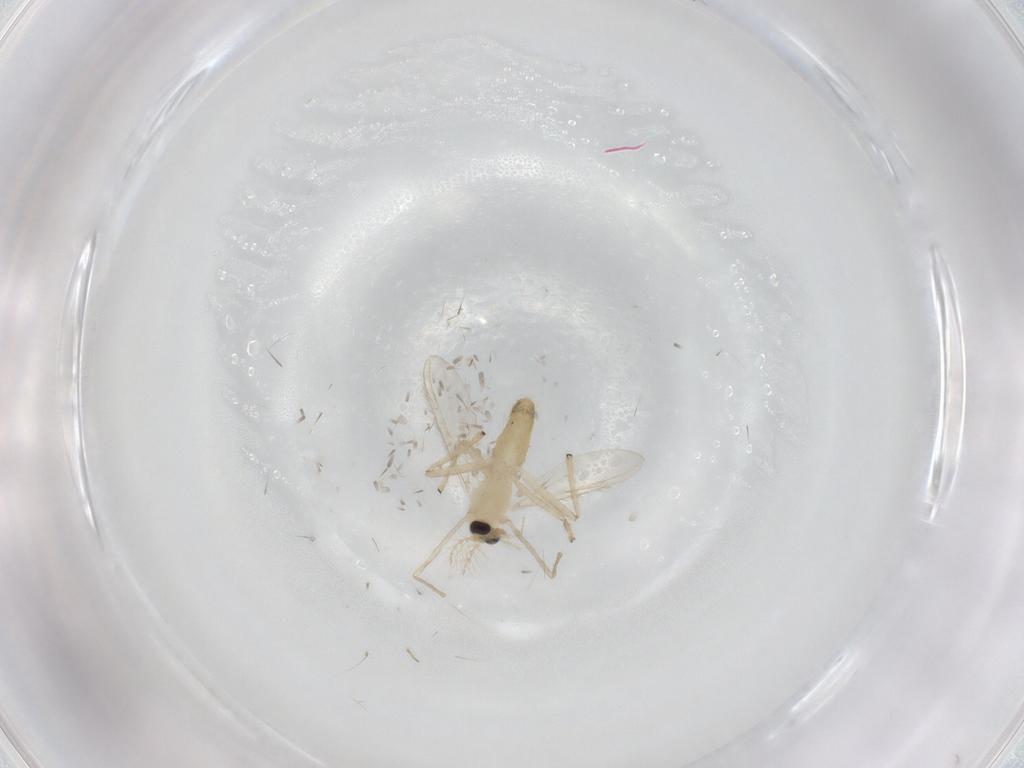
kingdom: Animalia
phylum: Arthropoda
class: Insecta
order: Diptera
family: Chironomidae
